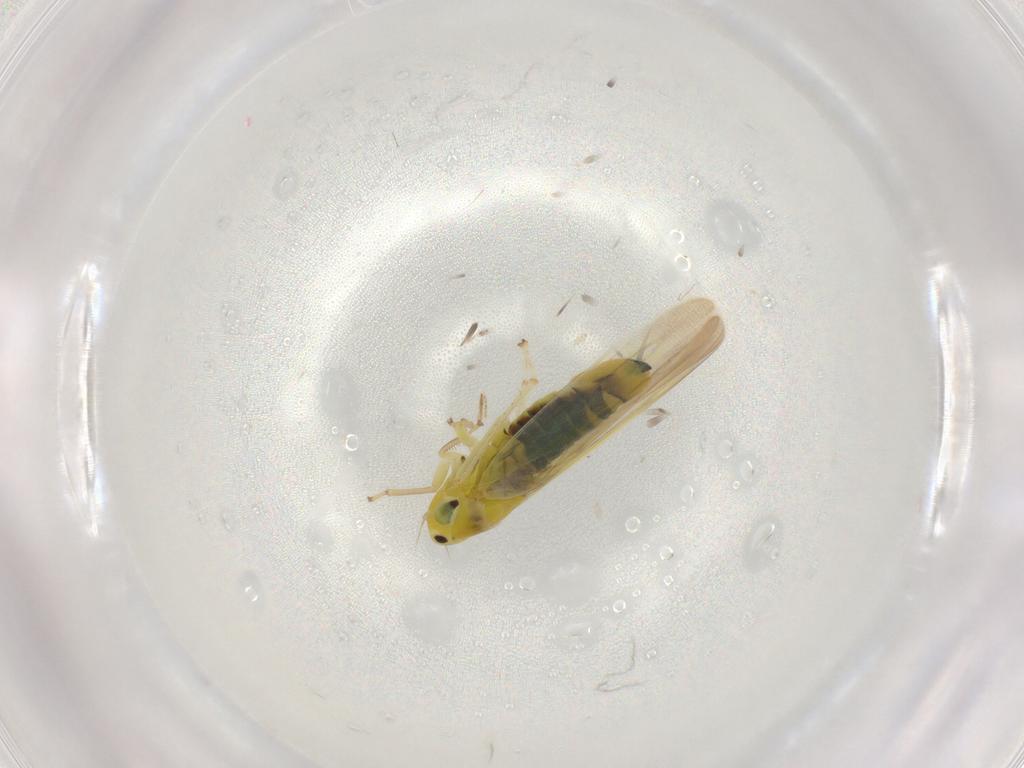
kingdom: Animalia
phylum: Arthropoda
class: Insecta
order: Hemiptera
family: Cicadellidae
